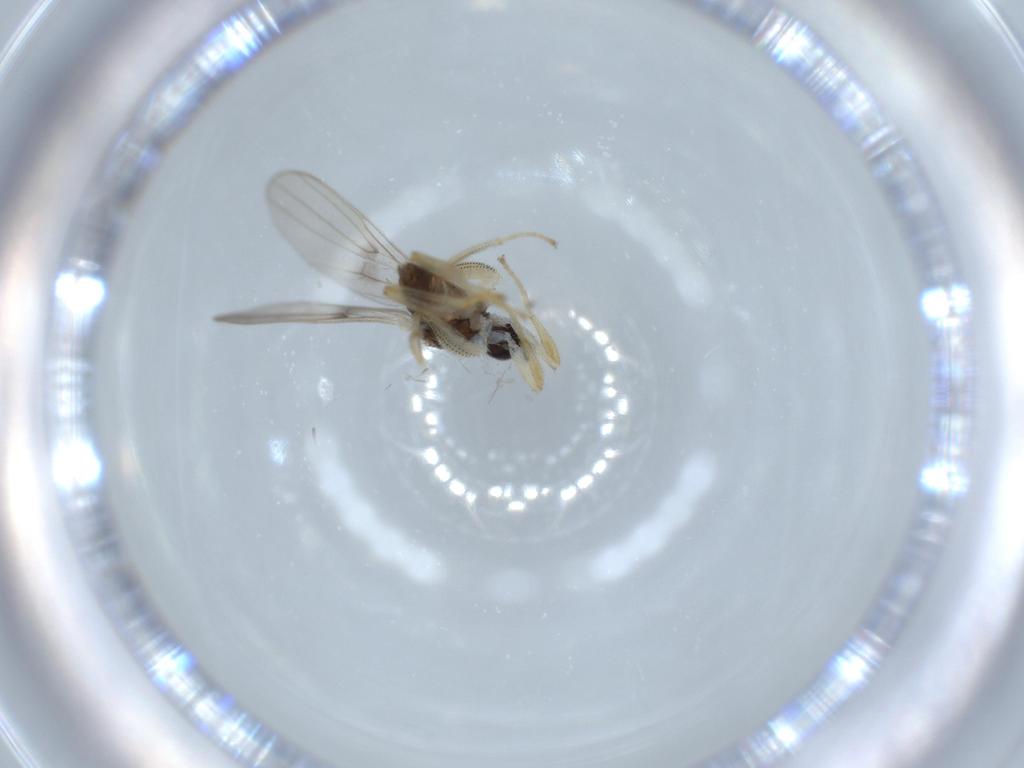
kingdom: Animalia
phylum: Arthropoda
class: Insecta
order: Diptera
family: Hybotidae
